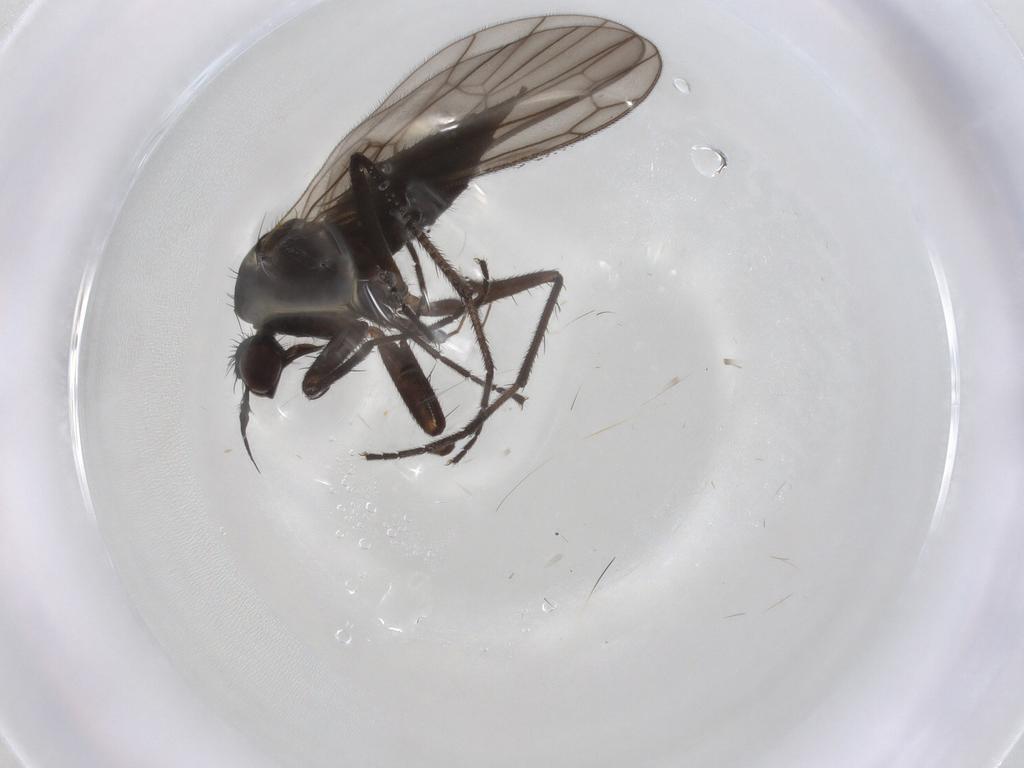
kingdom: Animalia
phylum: Arthropoda
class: Insecta
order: Diptera
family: Empididae
